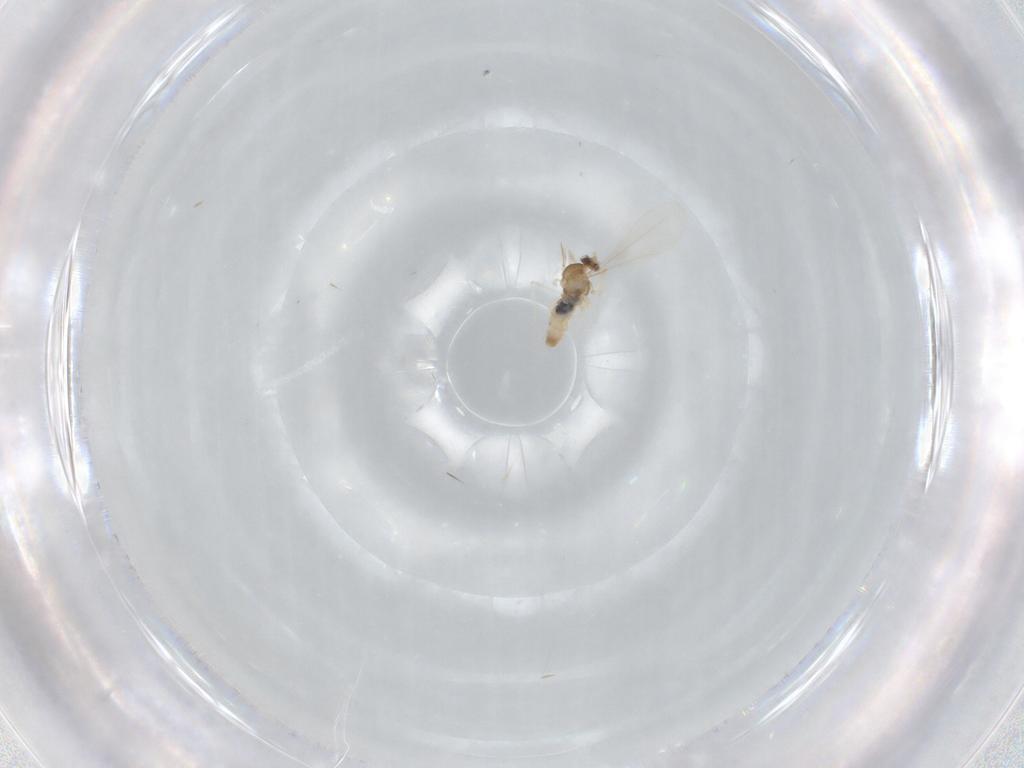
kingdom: Animalia
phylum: Arthropoda
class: Insecta
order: Diptera
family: Cecidomyiidae
